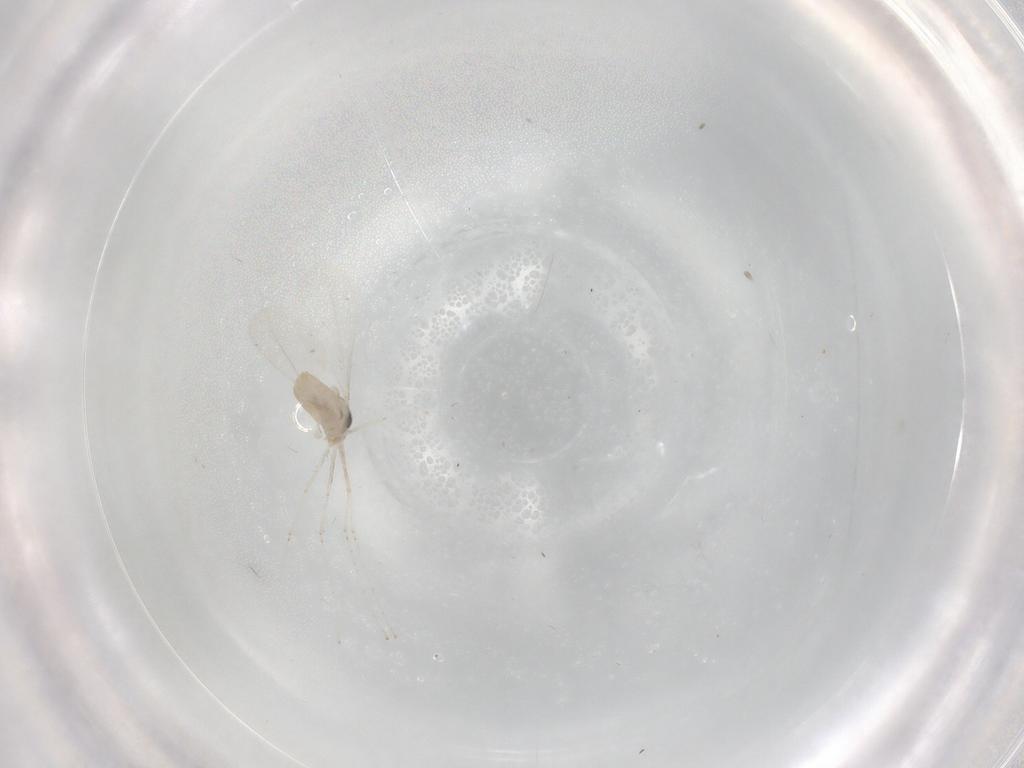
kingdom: Animalia
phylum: Arthropoda
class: Insecta
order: Diptera
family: Cecidomyiidae
